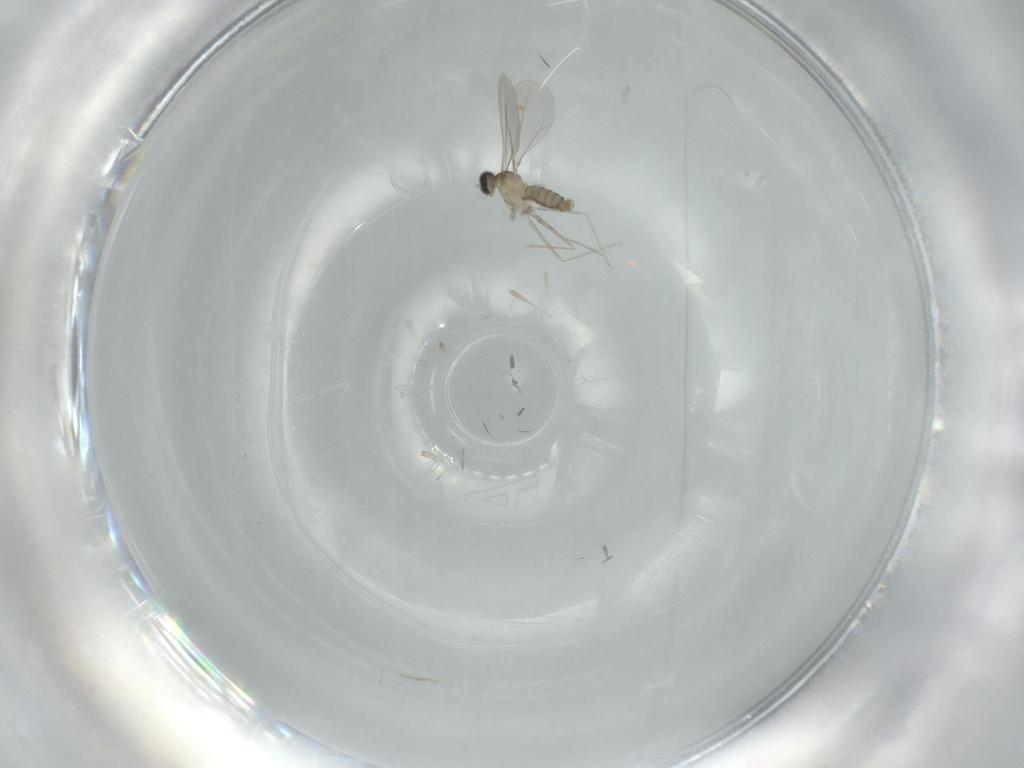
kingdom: Animalia
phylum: Arthropoda
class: Insecta
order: Diptera
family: Cecidomyiidae
